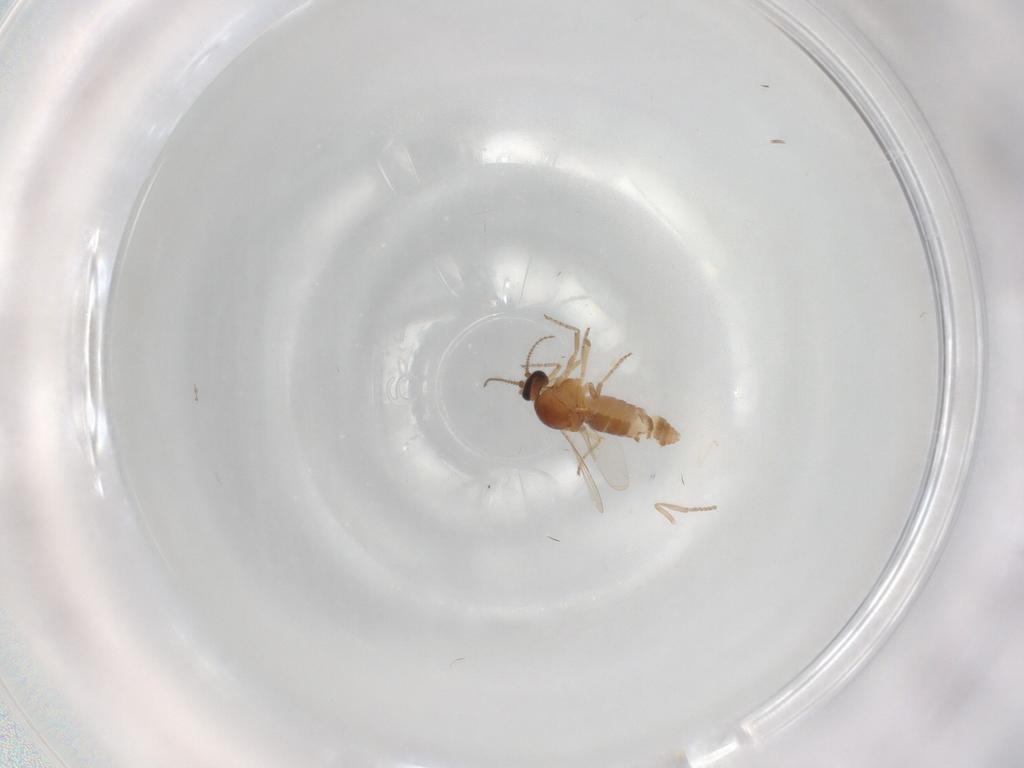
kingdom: Animalia
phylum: Arthropoda
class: Insecta
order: Diptera
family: Ceratopogonidae
